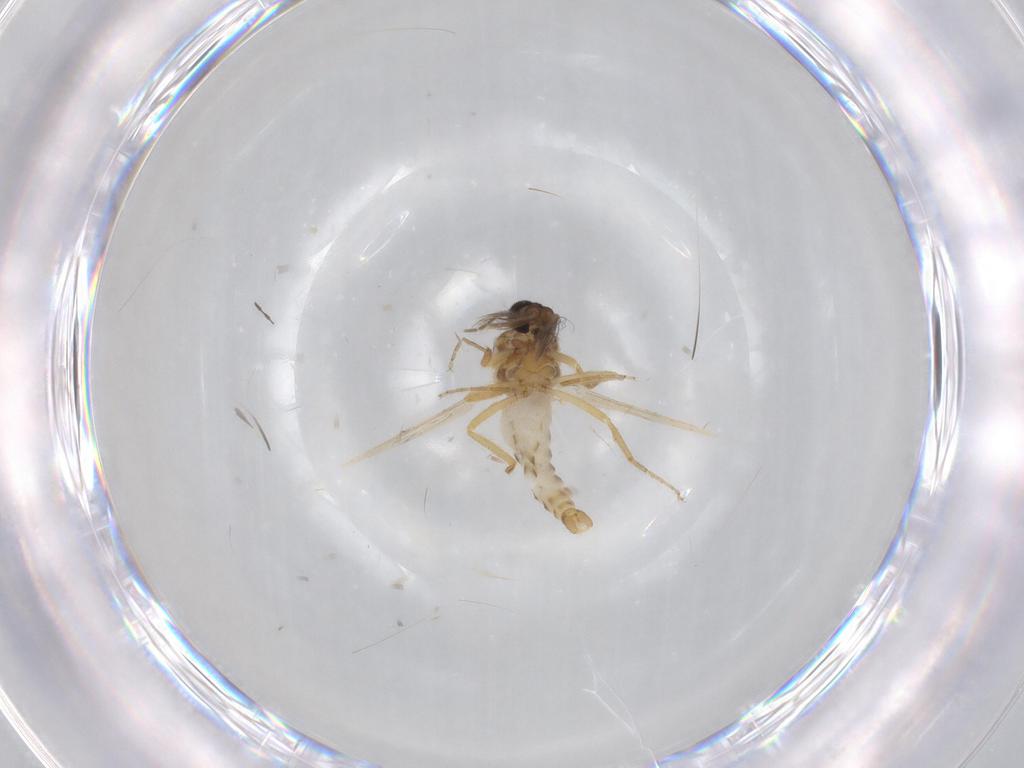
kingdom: Animalia
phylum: Arthropoda
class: Insecta
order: Diptera
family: Ceratopogonidae
